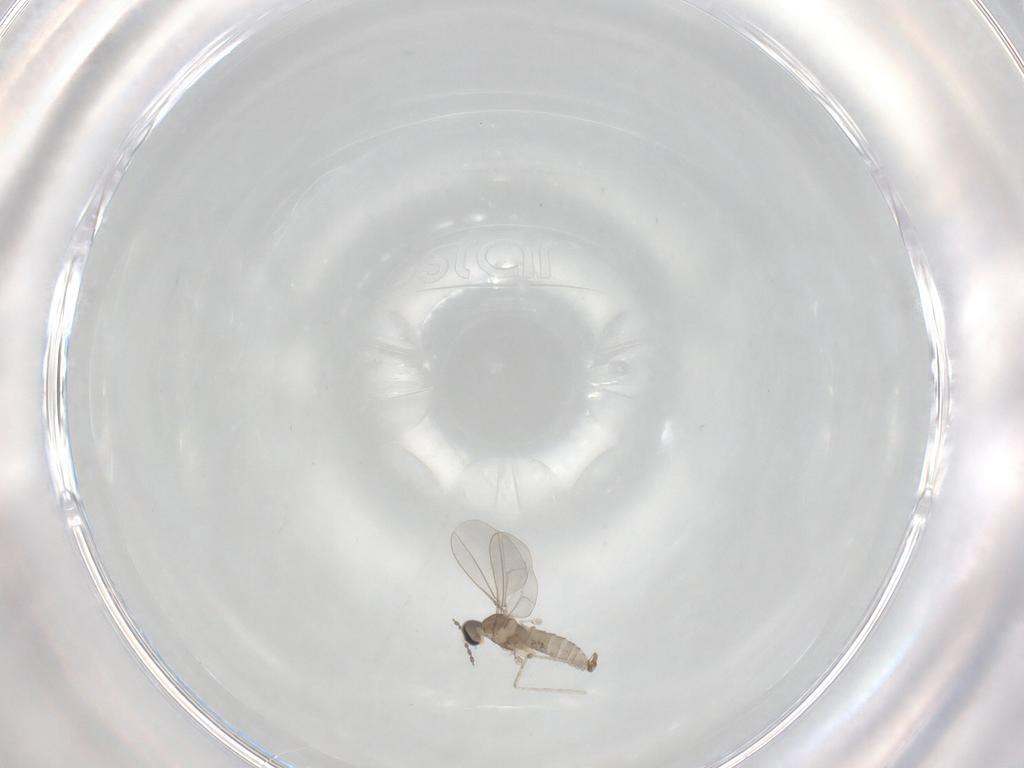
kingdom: Animalia
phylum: Arthropoda
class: Insecta
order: Diptera
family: Cecidomyiidae
